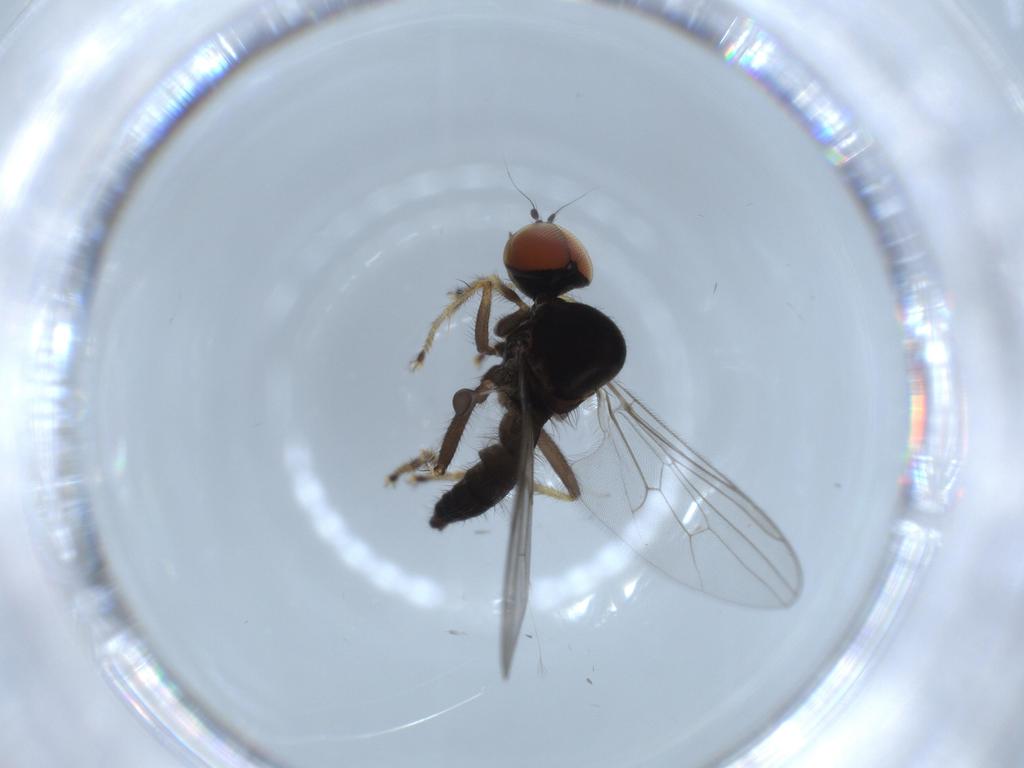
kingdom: Animalia
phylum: Arthropoda
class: Insecta
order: Diptera
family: Hybotidae
